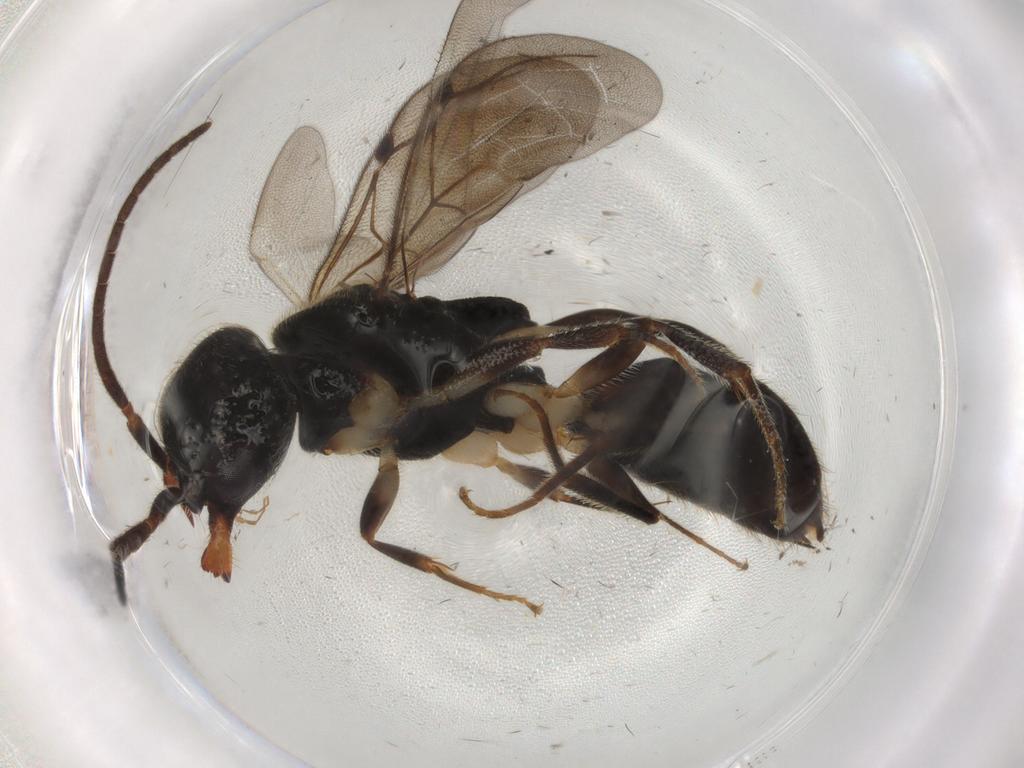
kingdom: Animalia
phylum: Arthropoda
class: Insecta
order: Hymenoptera
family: Bethylidae
